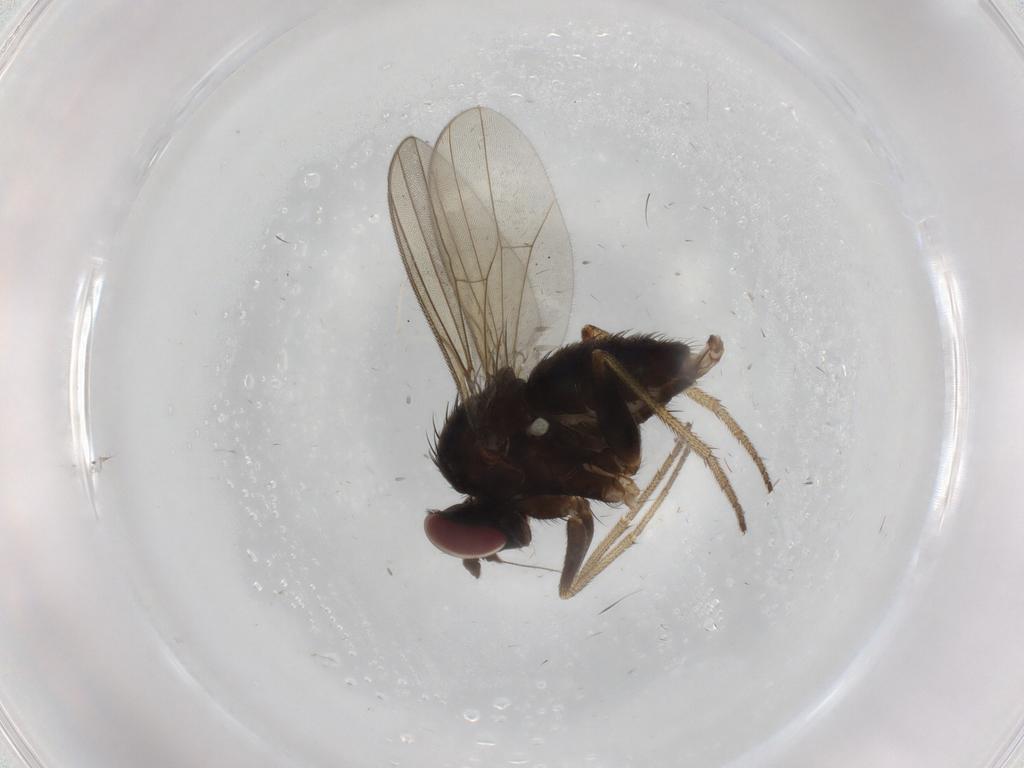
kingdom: Animalia
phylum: Arthropoda
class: Insecta
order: Diptera
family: Dolichopodidae
